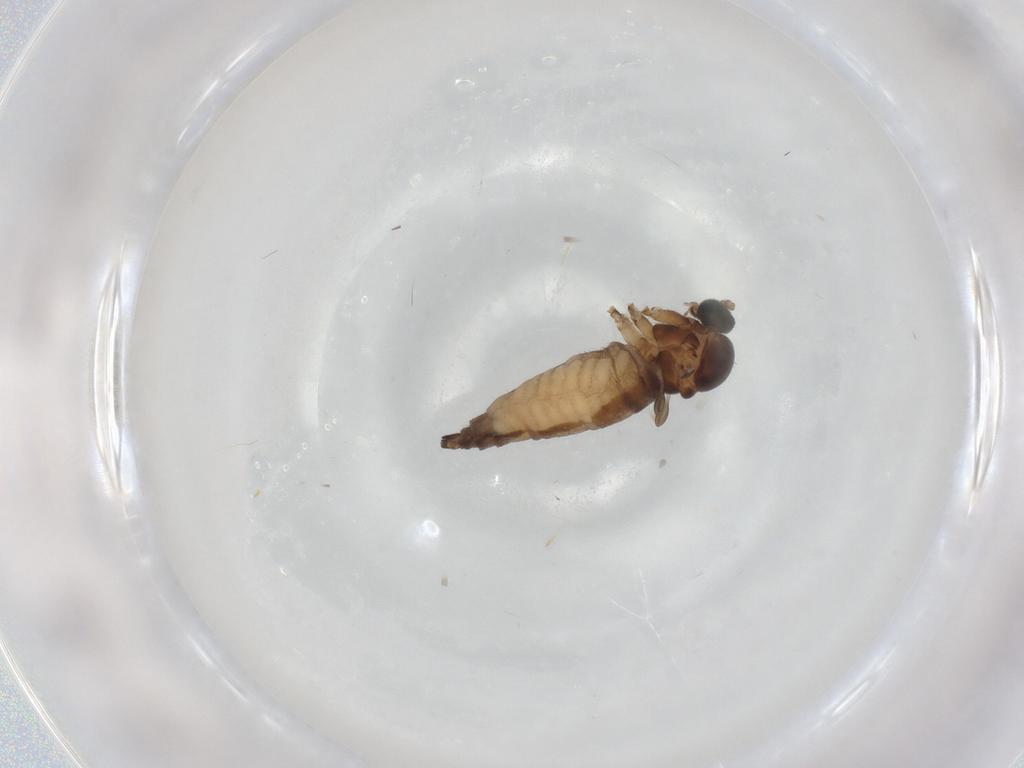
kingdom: Animalia
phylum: Arthropoda
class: Insecta
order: Diptera
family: Sciaridae
